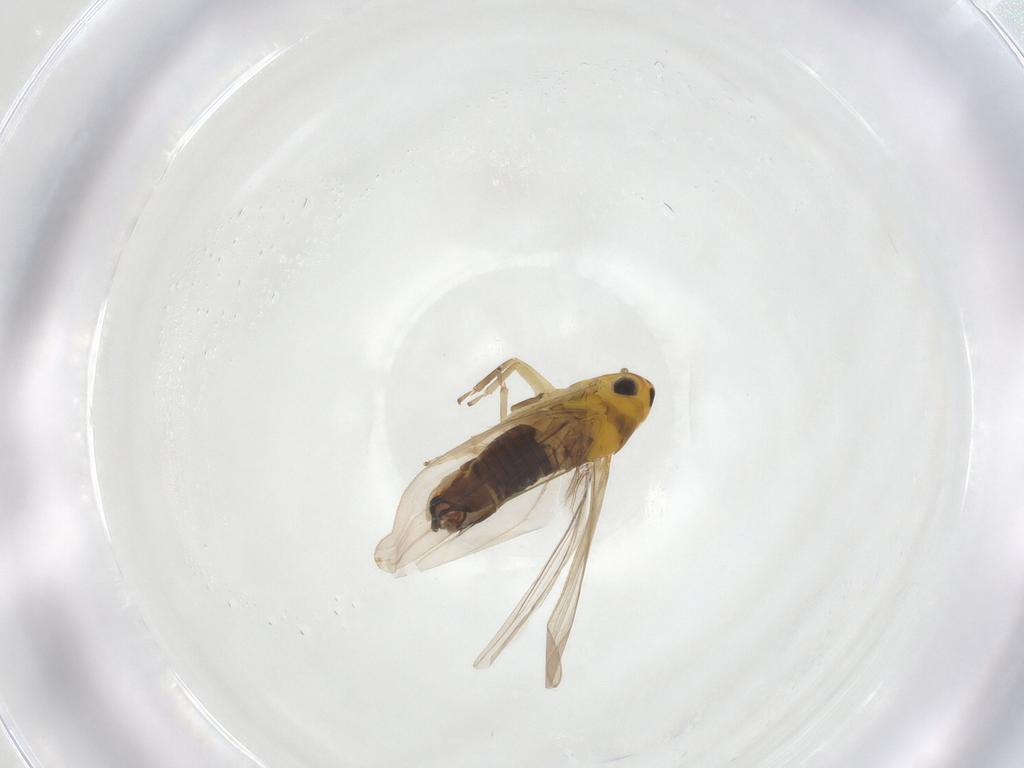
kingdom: Animalia
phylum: Arthropoda
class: Insecta
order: Hemiptera
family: Cicadellidae
